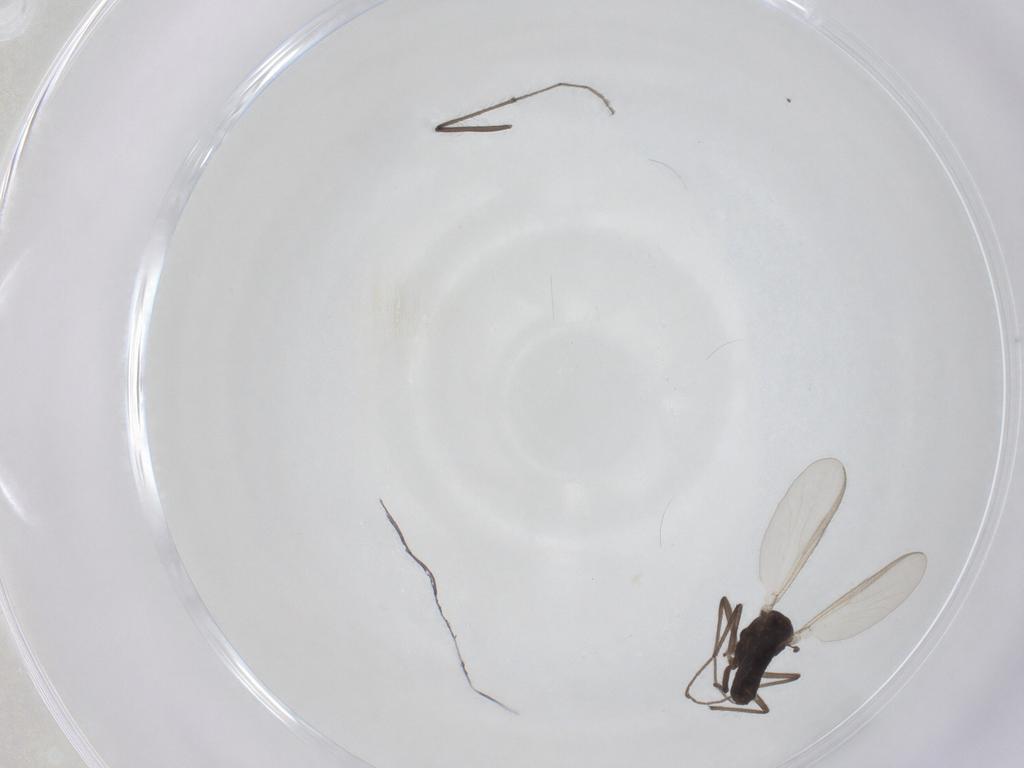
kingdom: Animalia
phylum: Arthropoda
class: Insecta
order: Diptera
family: Chironomidae
